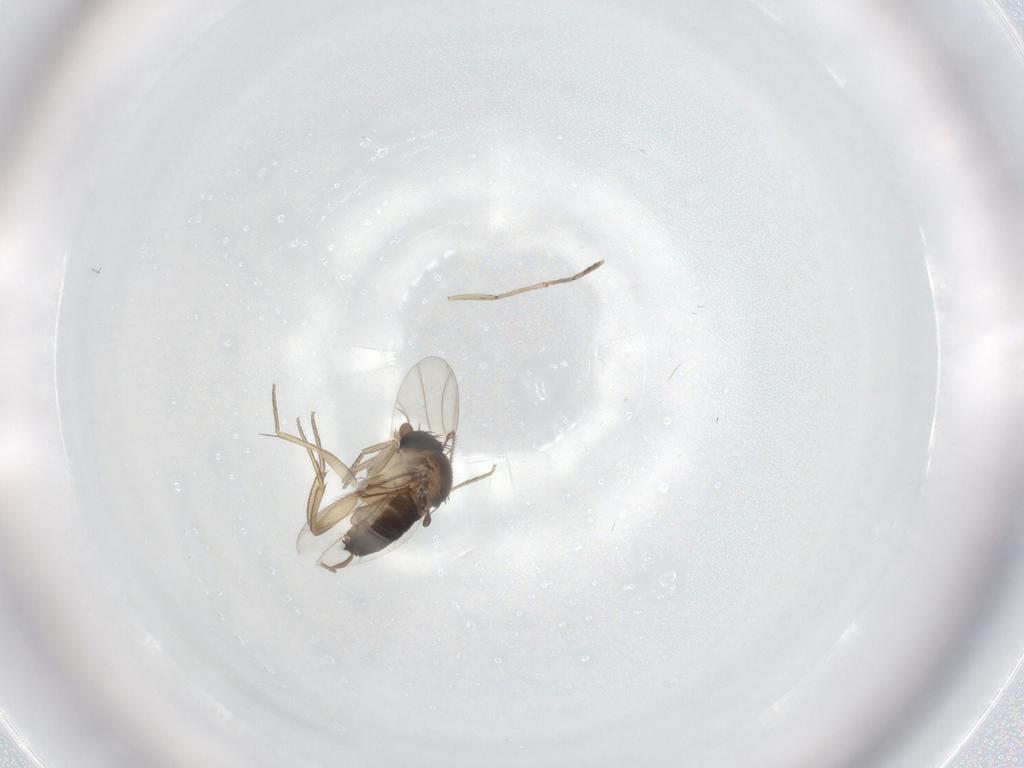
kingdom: Animalia
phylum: Arthropoda
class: Insecta
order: Diptera
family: Phoridae
